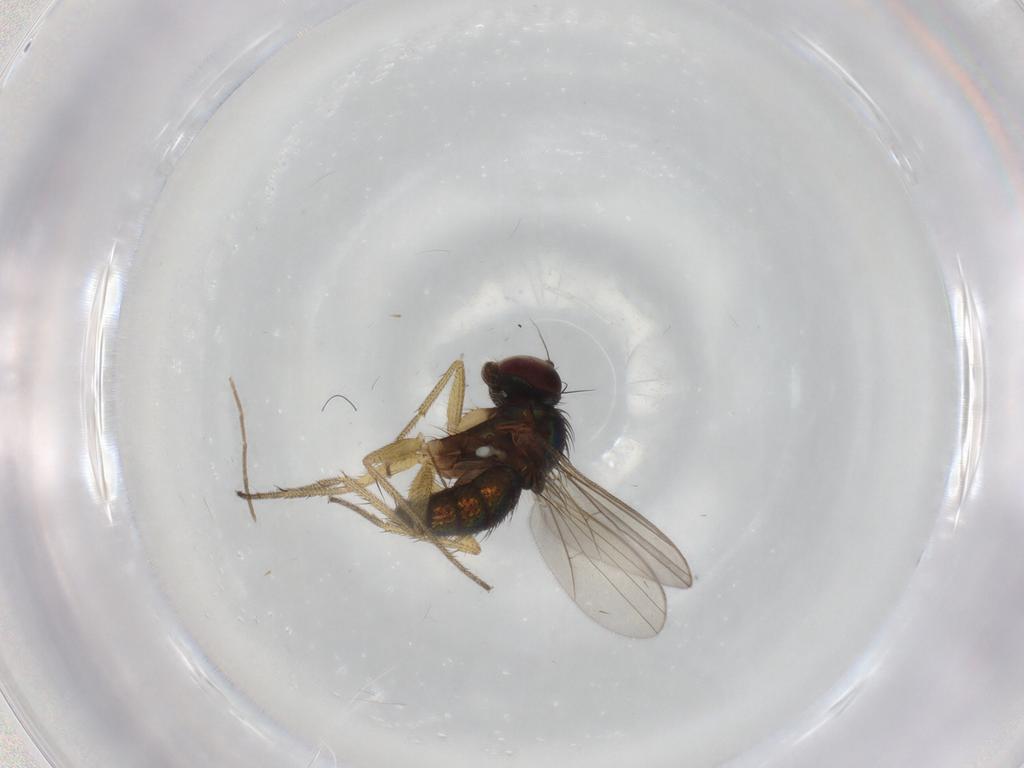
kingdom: Animalia
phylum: Arthropoda
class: Insecta
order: Diptera
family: Dolichopodidae
